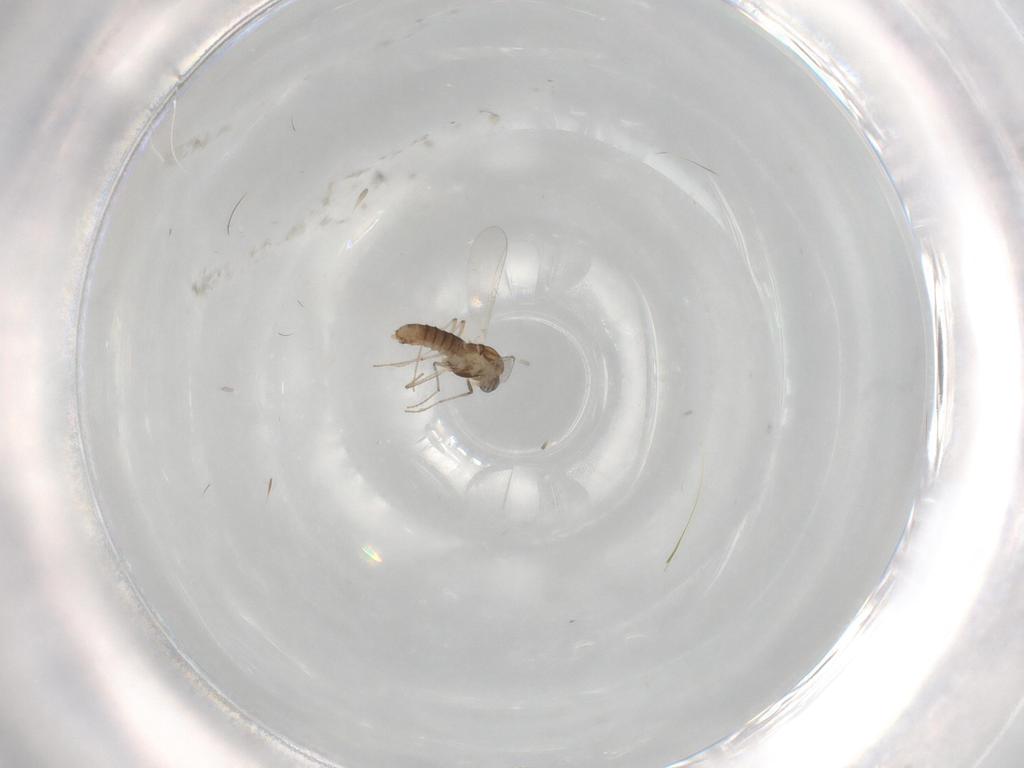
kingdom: Animalia
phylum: Arthropoda
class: Insecta
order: Diptera
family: Chironomidae
